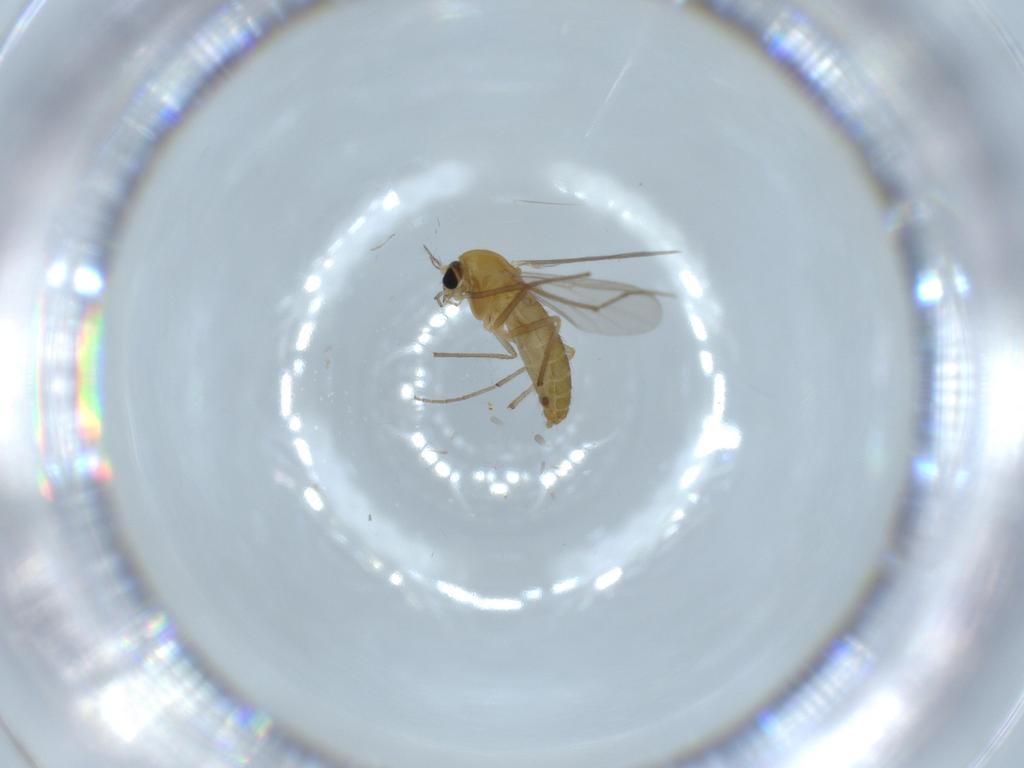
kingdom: Animalia
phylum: Arthropoda
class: Insecta
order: Diptera
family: Chironomidae
